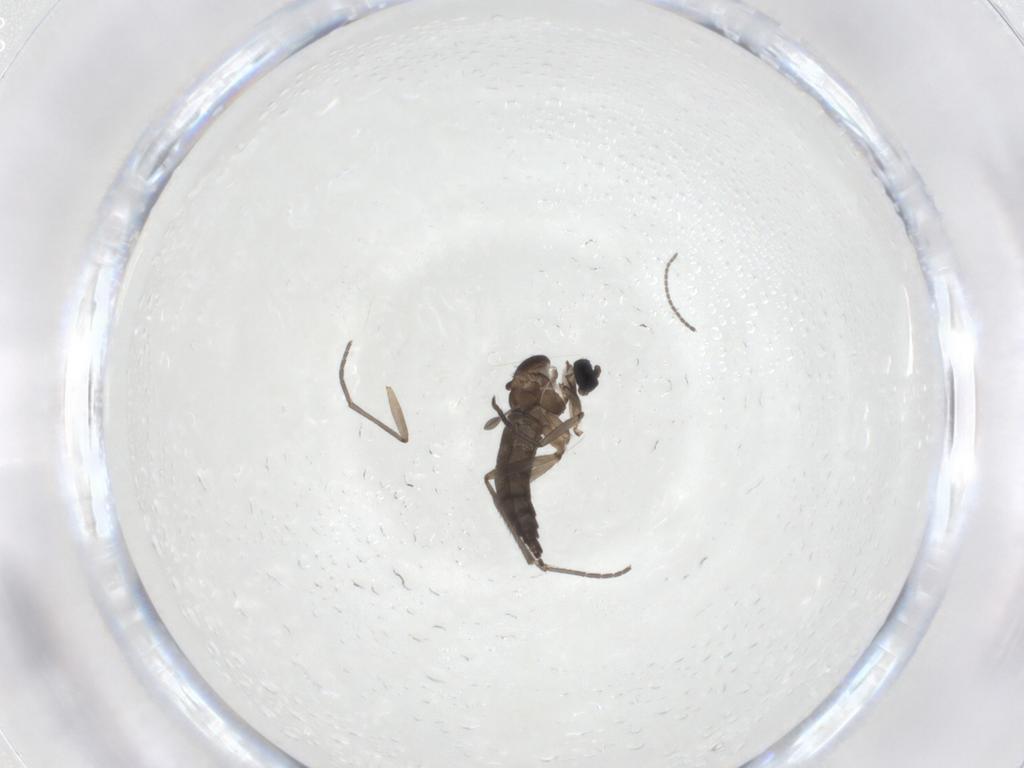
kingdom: Animalia
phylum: Arthropoda
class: Insecta
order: Diptera
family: Sciaridae
